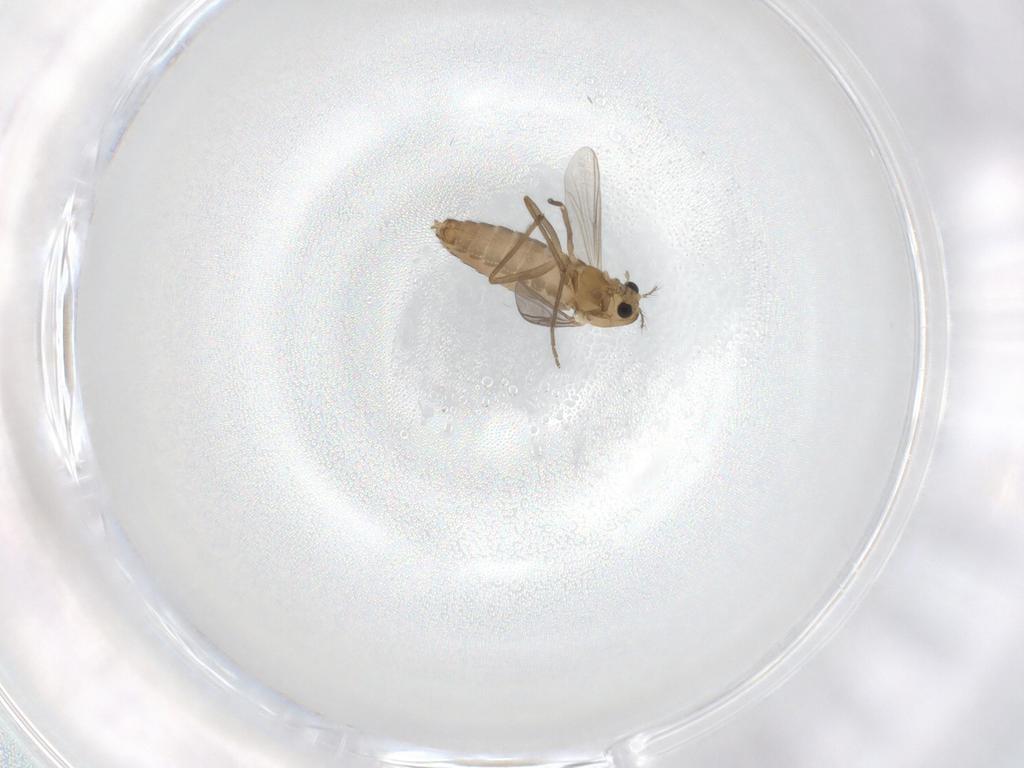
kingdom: Animalia
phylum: Arthropoda
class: Insecta
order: Diptera
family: Chironomidae
